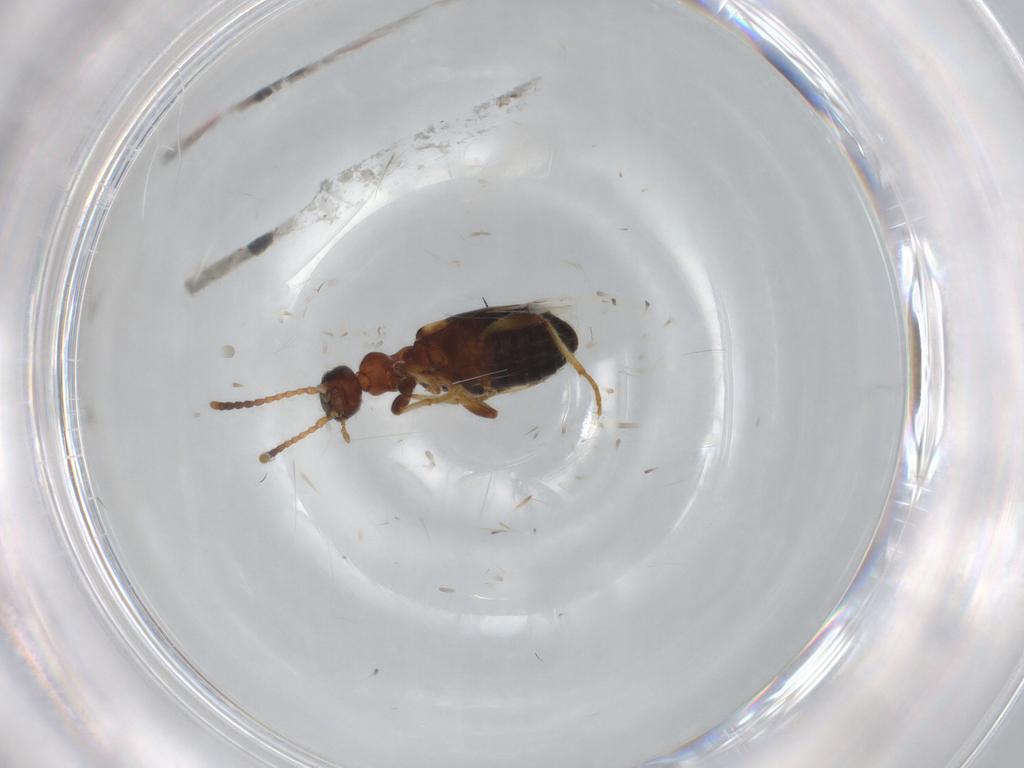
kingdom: Animalia
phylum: Arthropoda
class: Insecta
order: Coleoptera
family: Anthicidae
